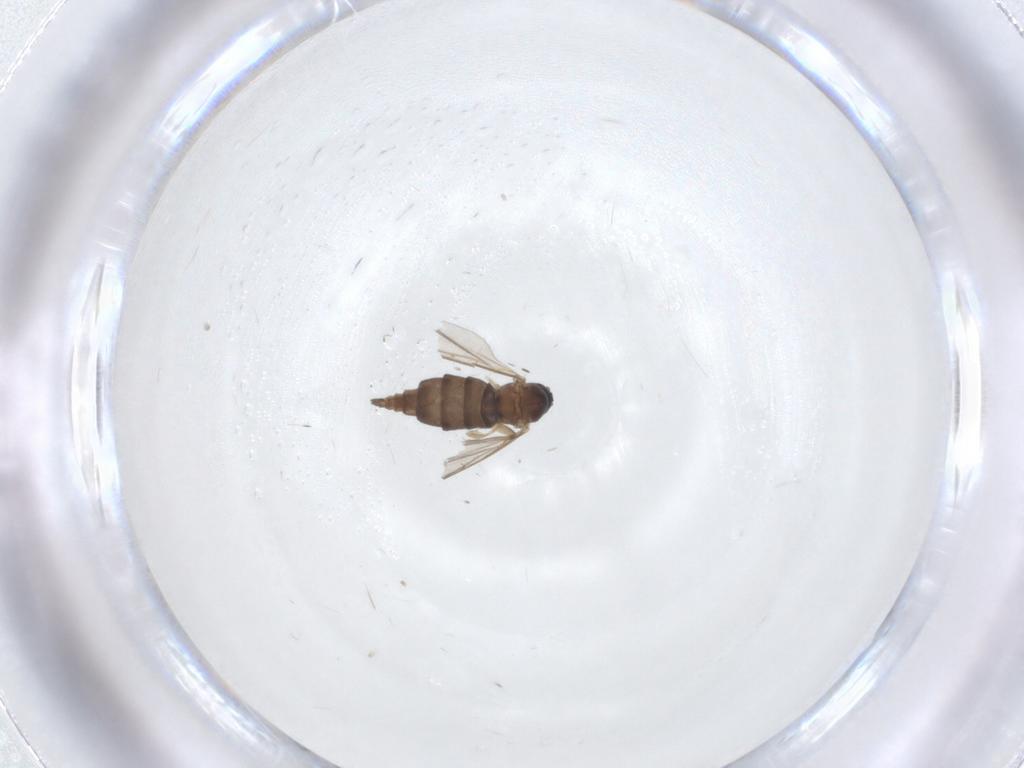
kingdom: Animalia
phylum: Arthropoda
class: Insecta
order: Diptera
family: Sciaridae
